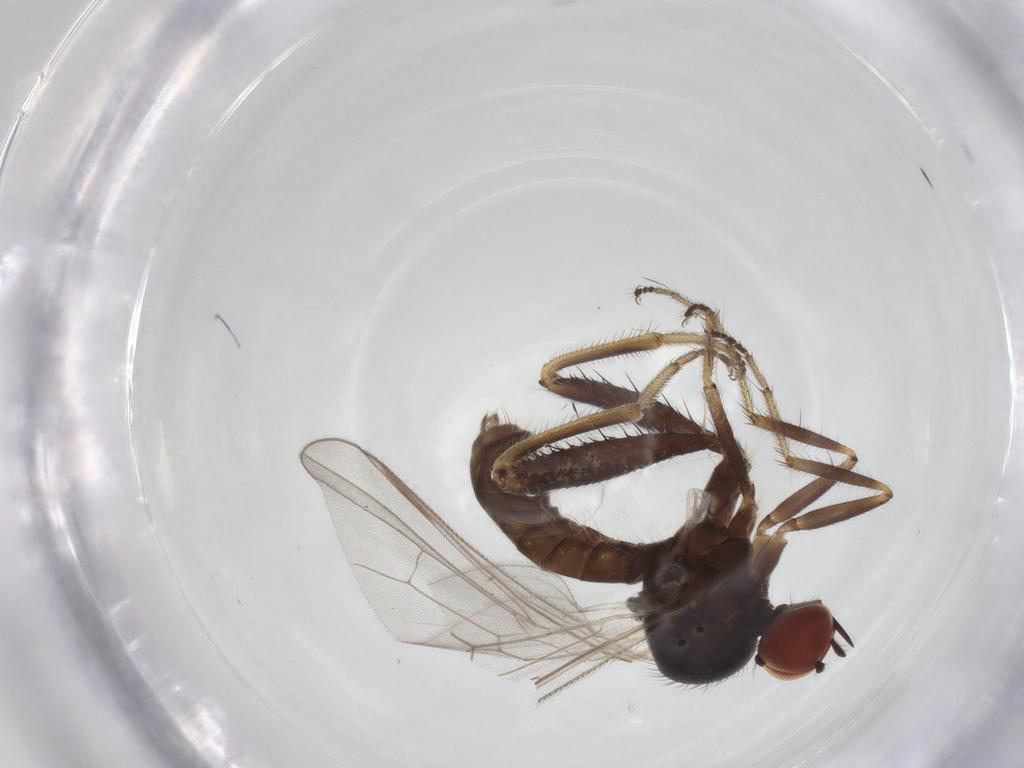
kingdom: Animalia
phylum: Arthropoda
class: Insecta
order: Diptera
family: Hybotidae
